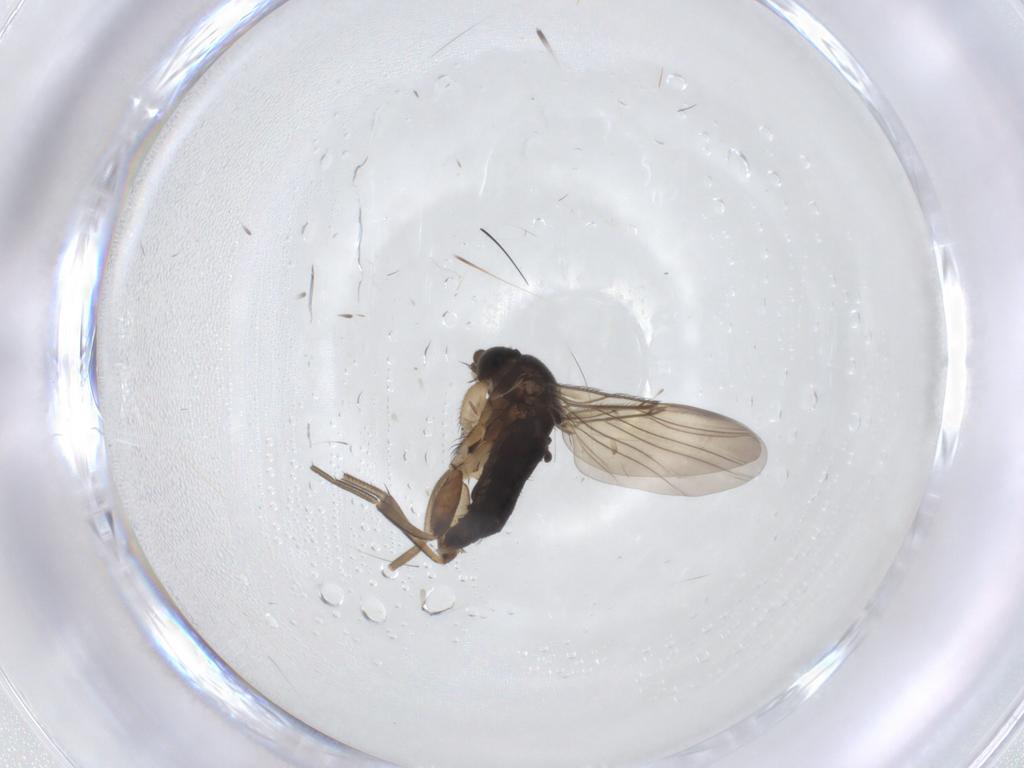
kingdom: Animalia
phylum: Arthropoda
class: Insecta
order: Diptera
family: Phoridae
